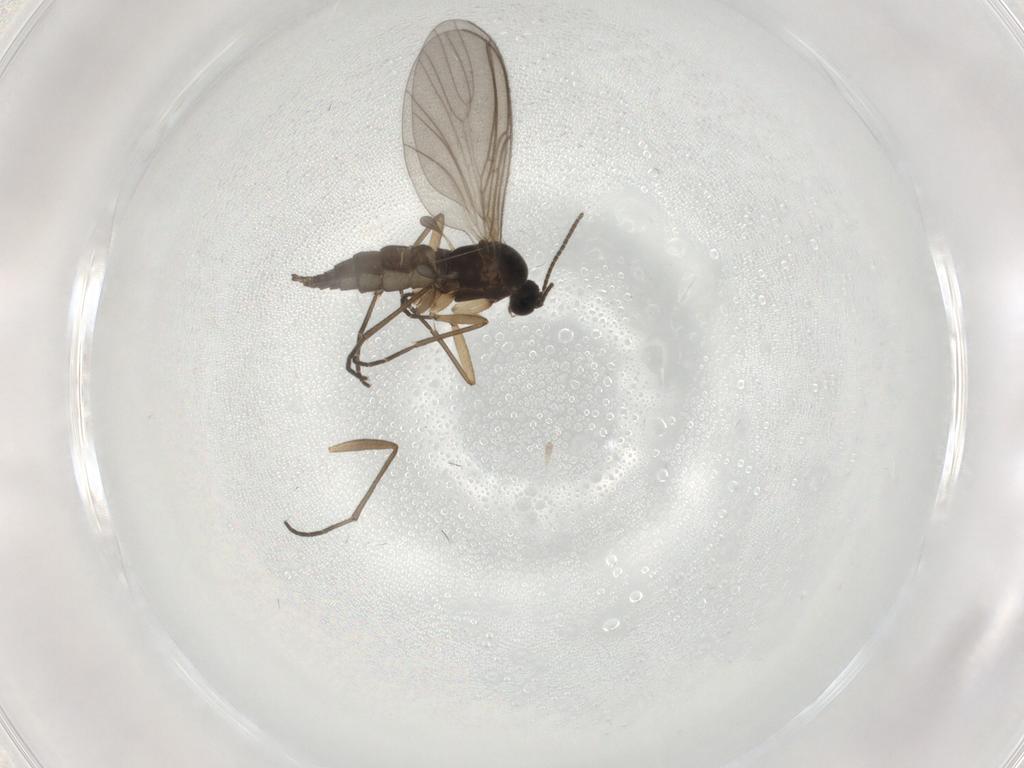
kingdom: Animalia
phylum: Arthropoda
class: Insecta
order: Diptera
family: Sciaridae
